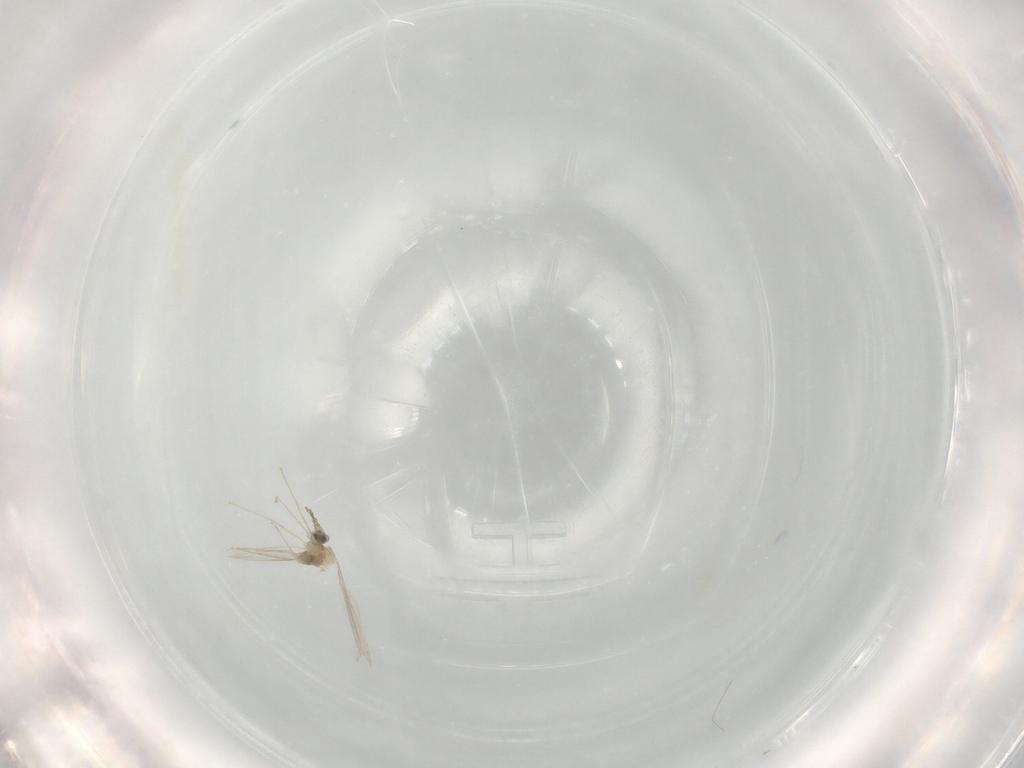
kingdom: Animalia
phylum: Arthropoda
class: Insecta
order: Diptera
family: Cecidomyiidae
